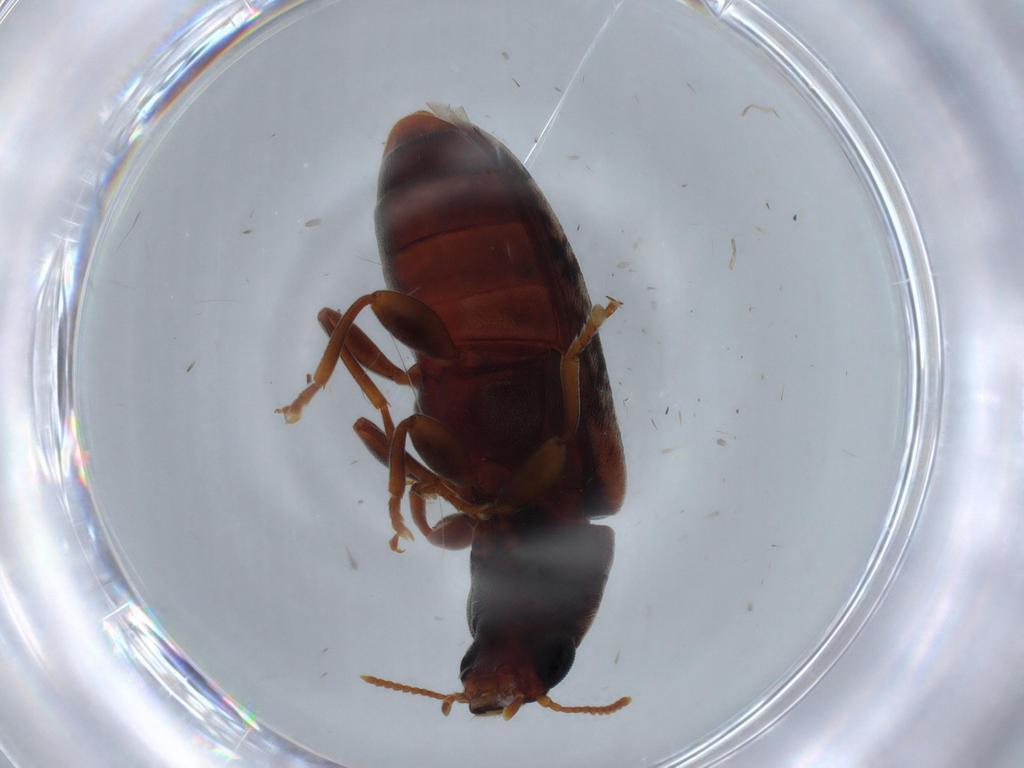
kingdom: Animalia
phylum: Arthropoda
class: Insecta
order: Coleoptera
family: Mycteridae
